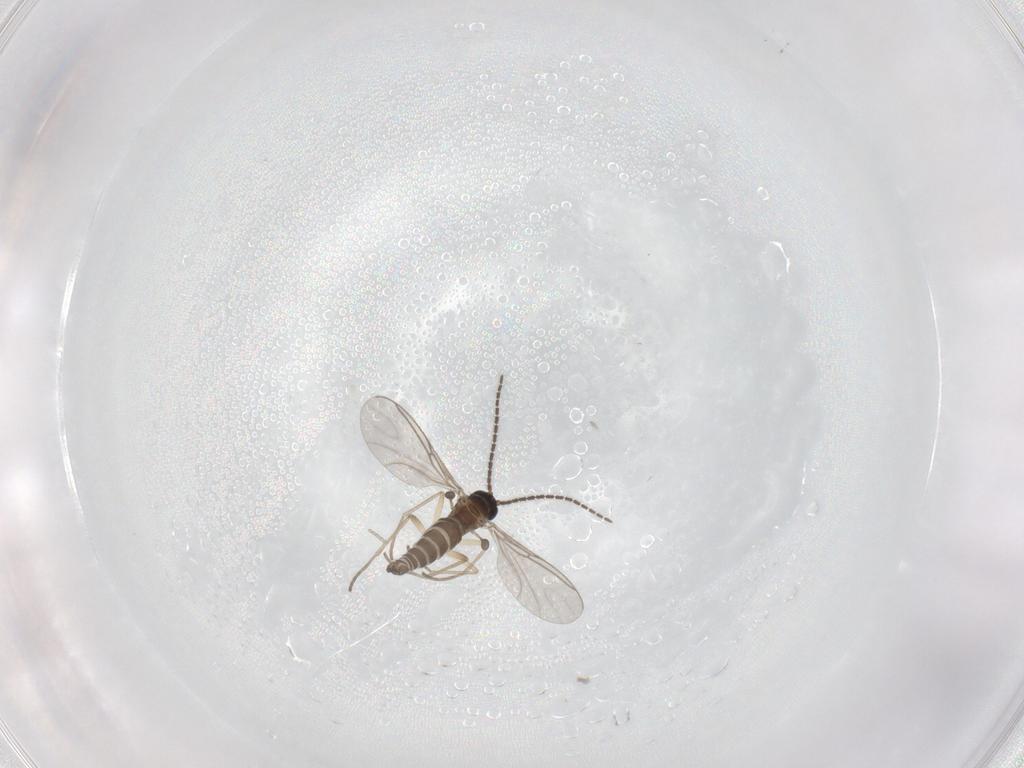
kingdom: Animalia
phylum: Arthropoda
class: Insecta
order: Diptera
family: Sciaridae
